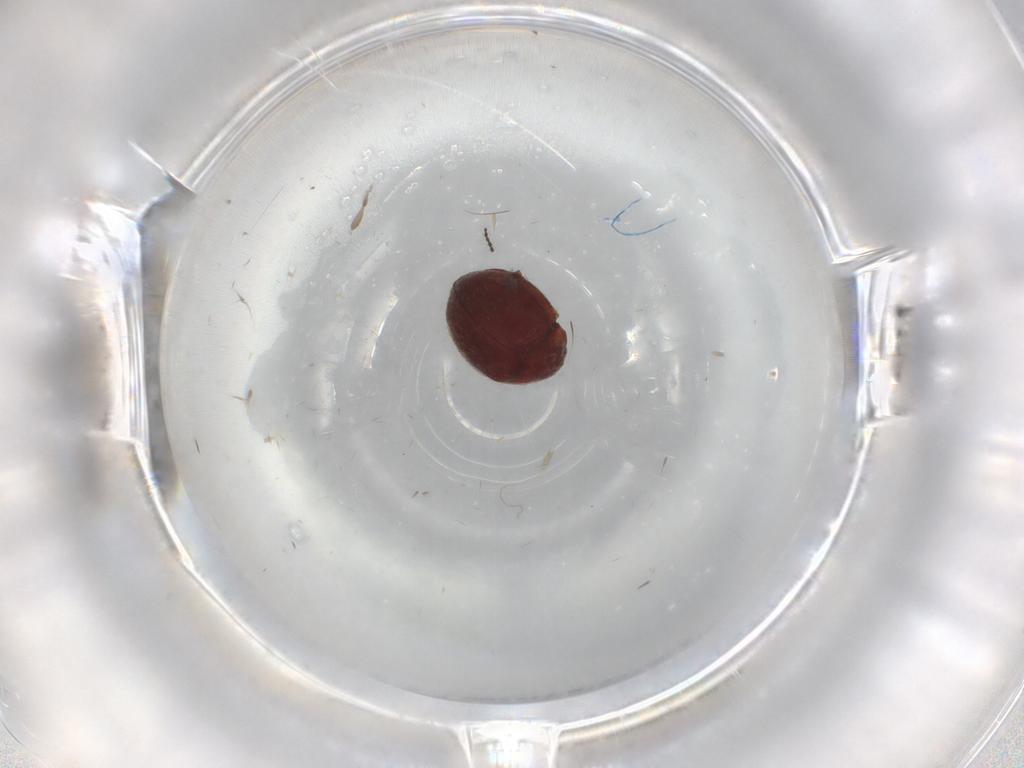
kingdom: Animalia
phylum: Arthropoda
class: Insecta
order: Coleoptera
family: Anamorphidae
